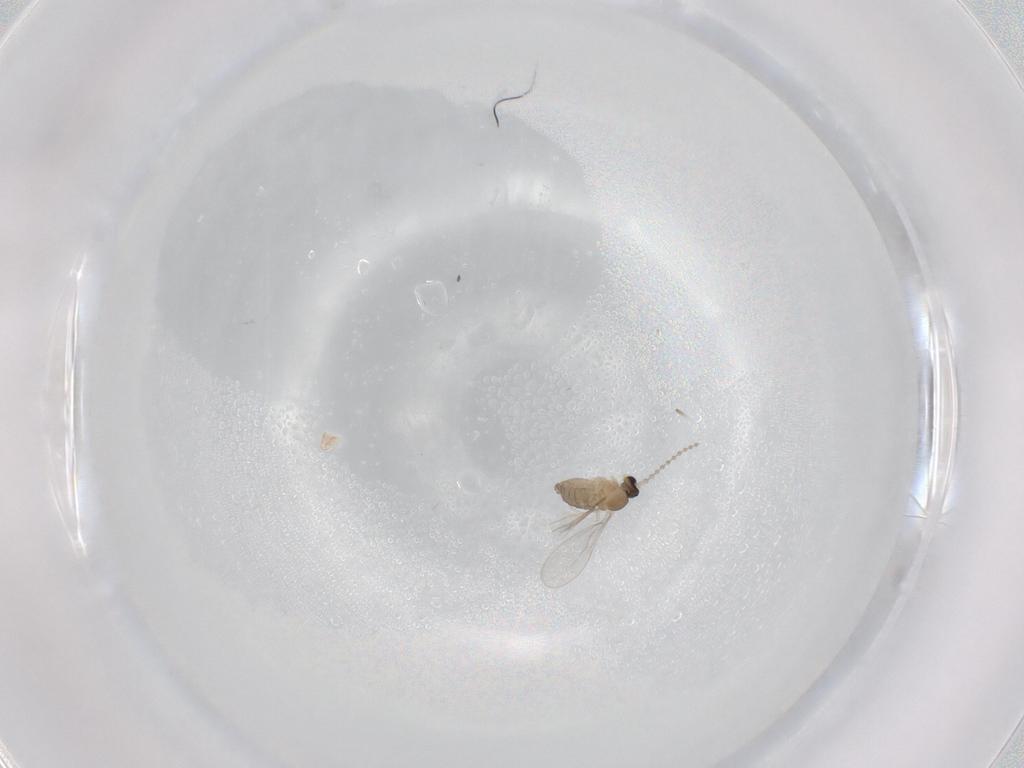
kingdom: Animalia
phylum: Arthropoda
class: Insecta
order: Diptera
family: Cecidomyiidae
